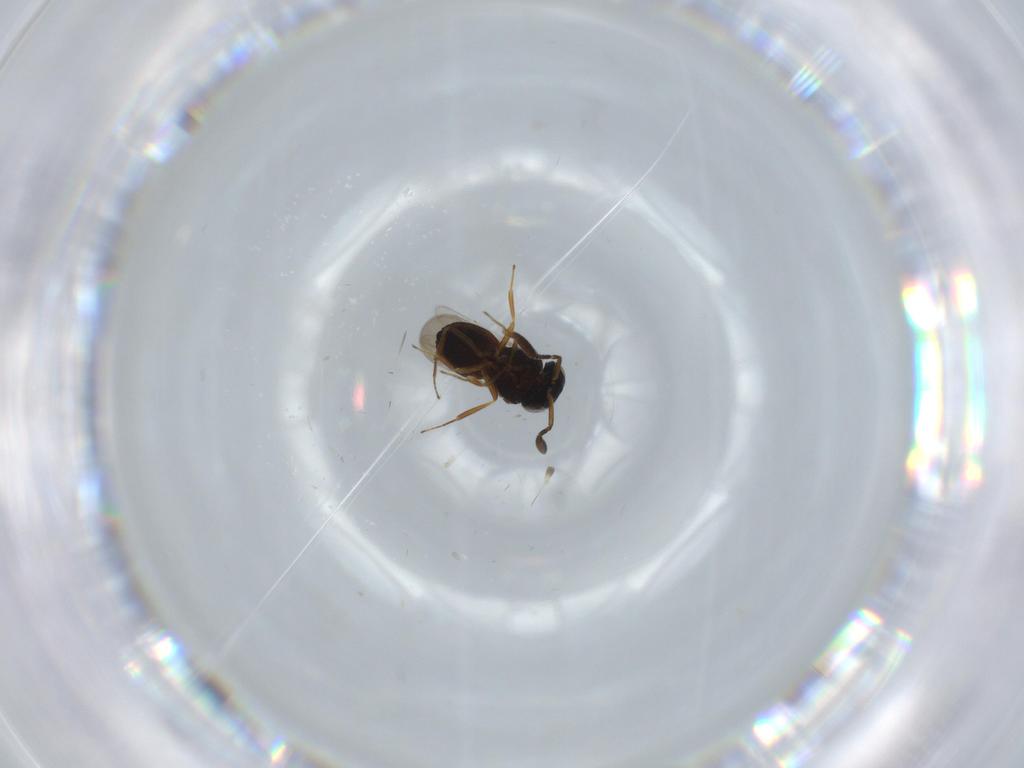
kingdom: Animalia
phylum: Arthropoda
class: Insecta
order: Coleoptera
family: Curculionidae
